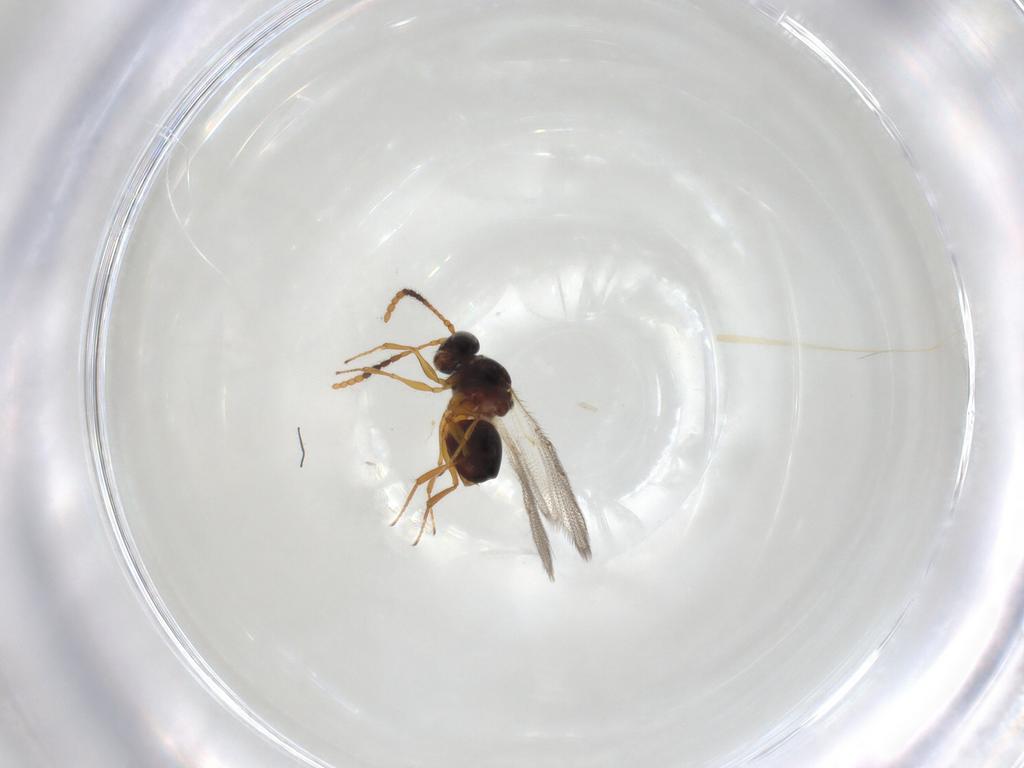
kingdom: Animalia
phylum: Arthropoda
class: Insecta
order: Hymenoptera
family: Figitidae
